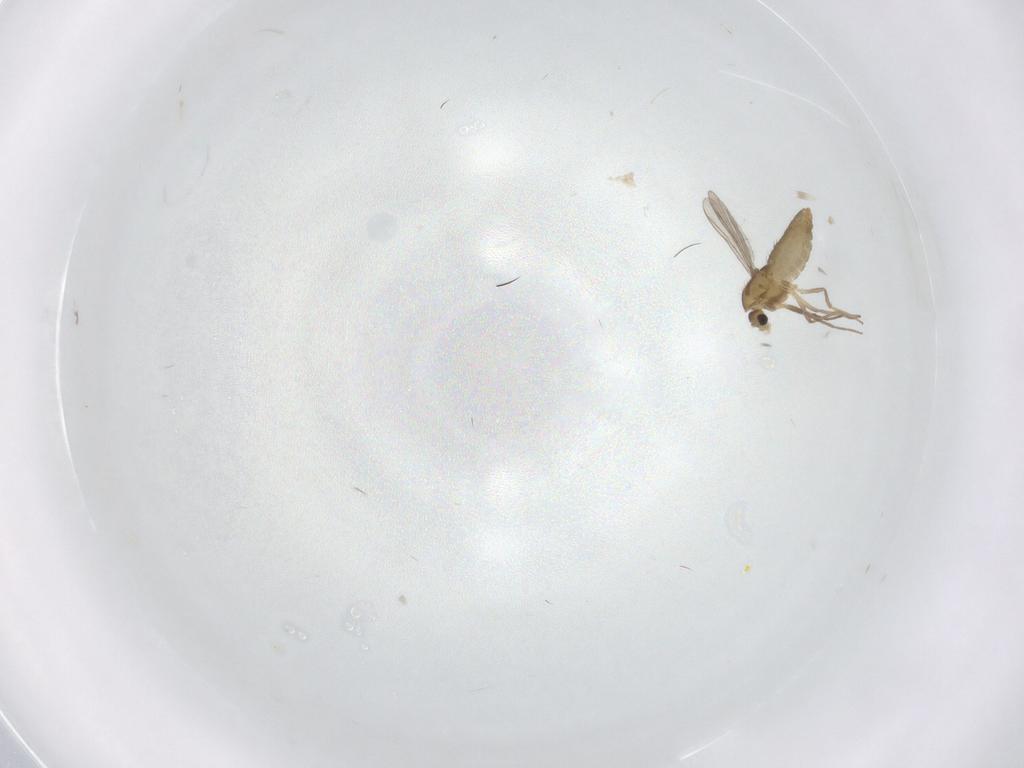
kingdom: Animalia
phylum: Arthropoda
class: Insecta
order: Diptera
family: Chironomidae
